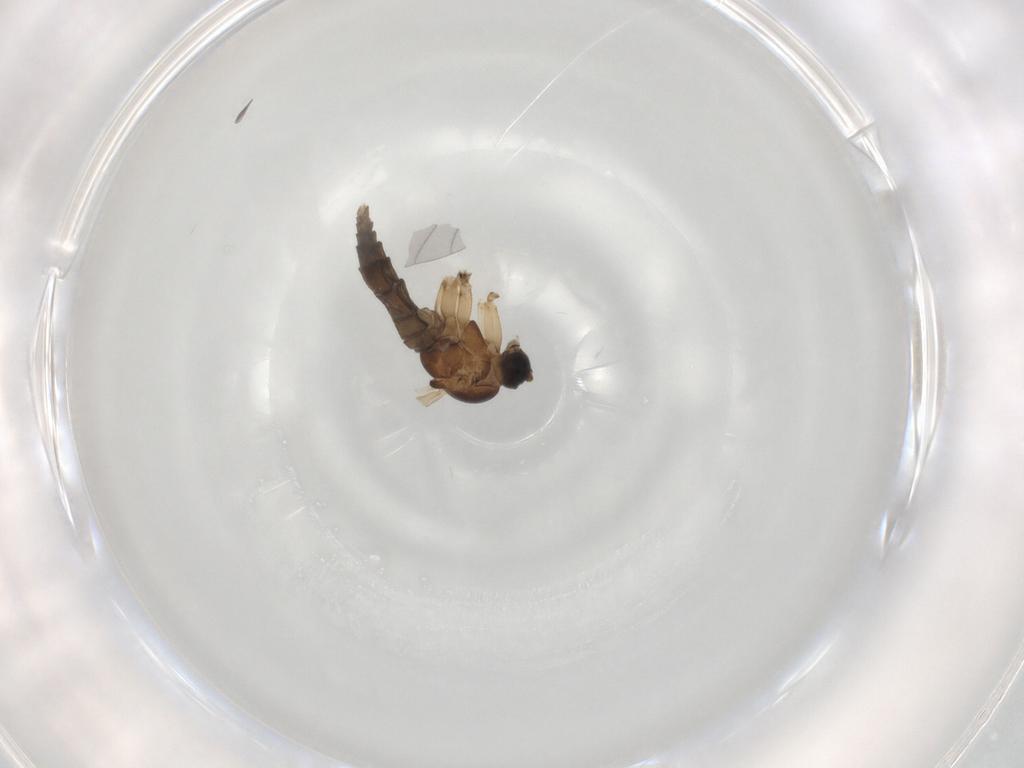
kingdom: Animalia
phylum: Arthropoda
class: Insecta
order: Diptera
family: Sciaridae
